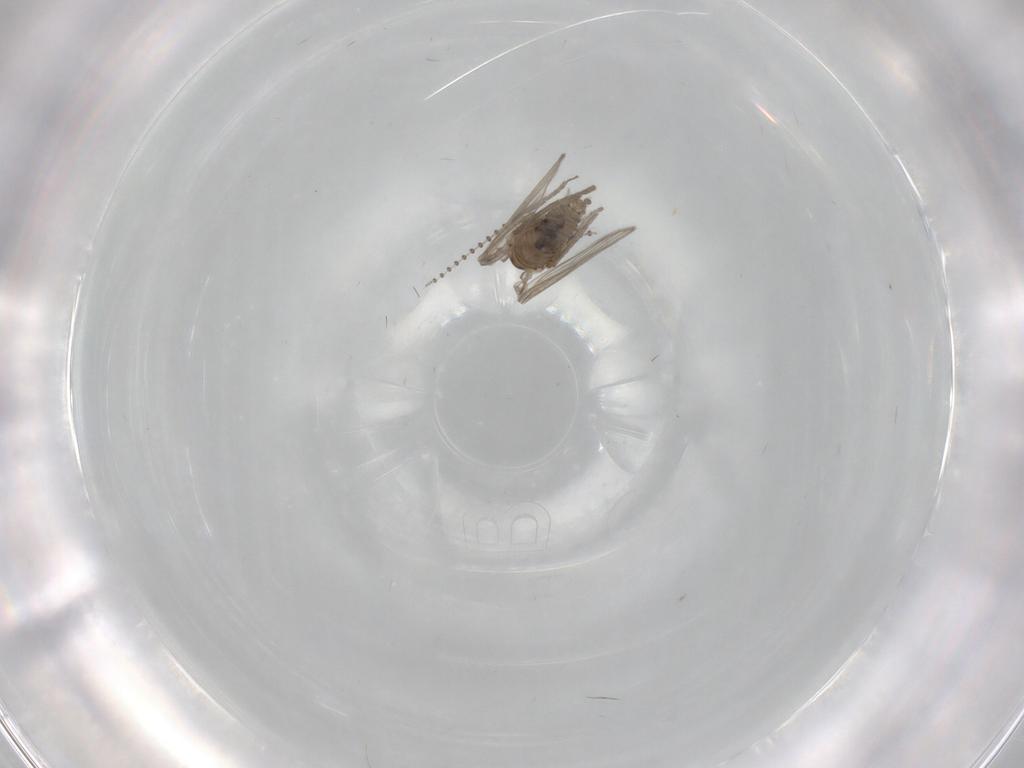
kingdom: Animalia
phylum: Arthropoda
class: Insecta
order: Diptera
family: Psychodidae
